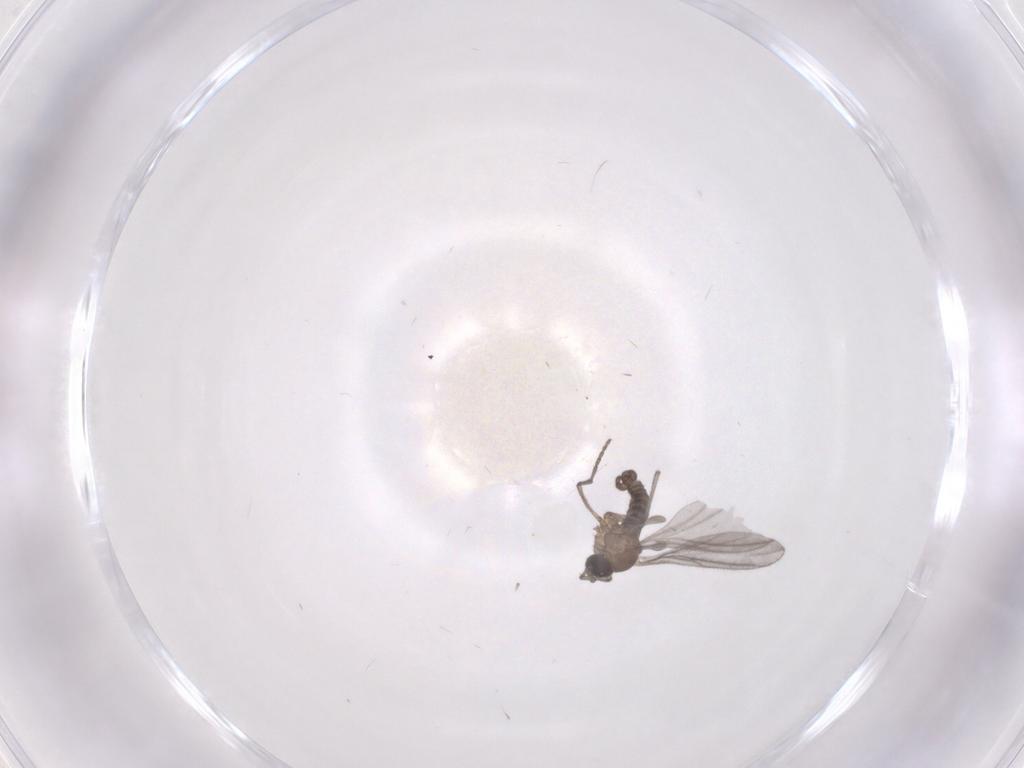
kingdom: Animalia
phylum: Arthropoda
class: Insecta
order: Diptera
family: Sciaridae
